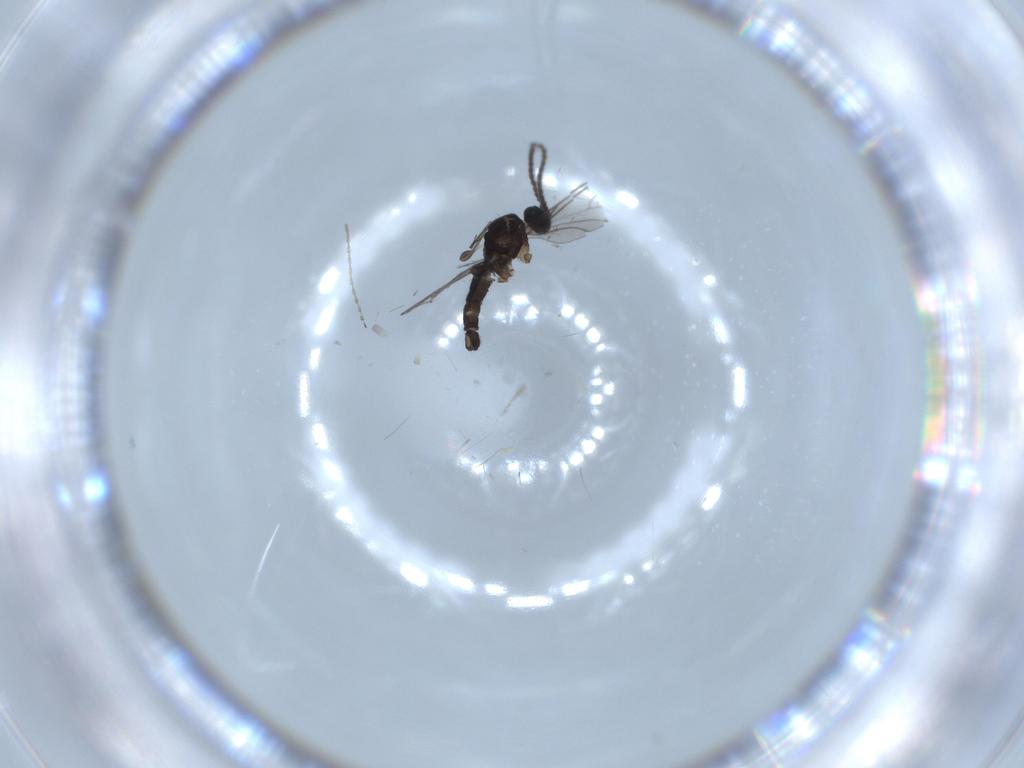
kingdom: Animalia
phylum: Arthropoda
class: Insecta
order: Diptera
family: Sciaridae
